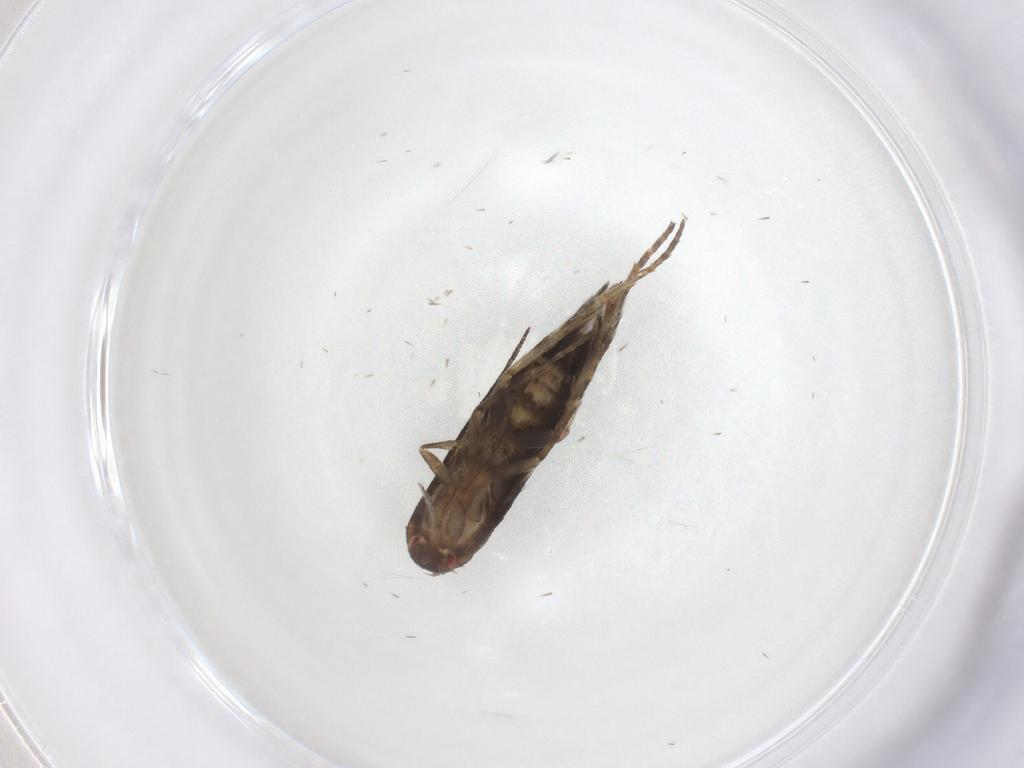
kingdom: Animalia
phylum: Arthropoda
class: Insecta
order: Lepidoptera
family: Momphidae
